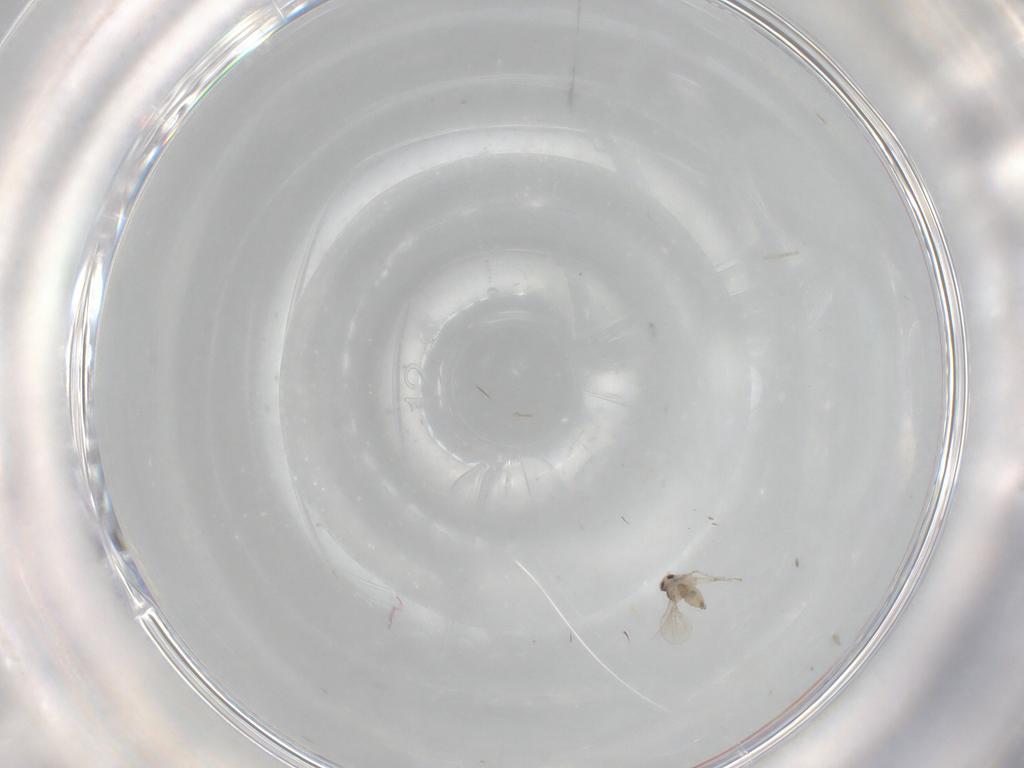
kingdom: Animalia
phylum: Arthropoda
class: Insecta
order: Diptera
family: Cecidomyiidae
